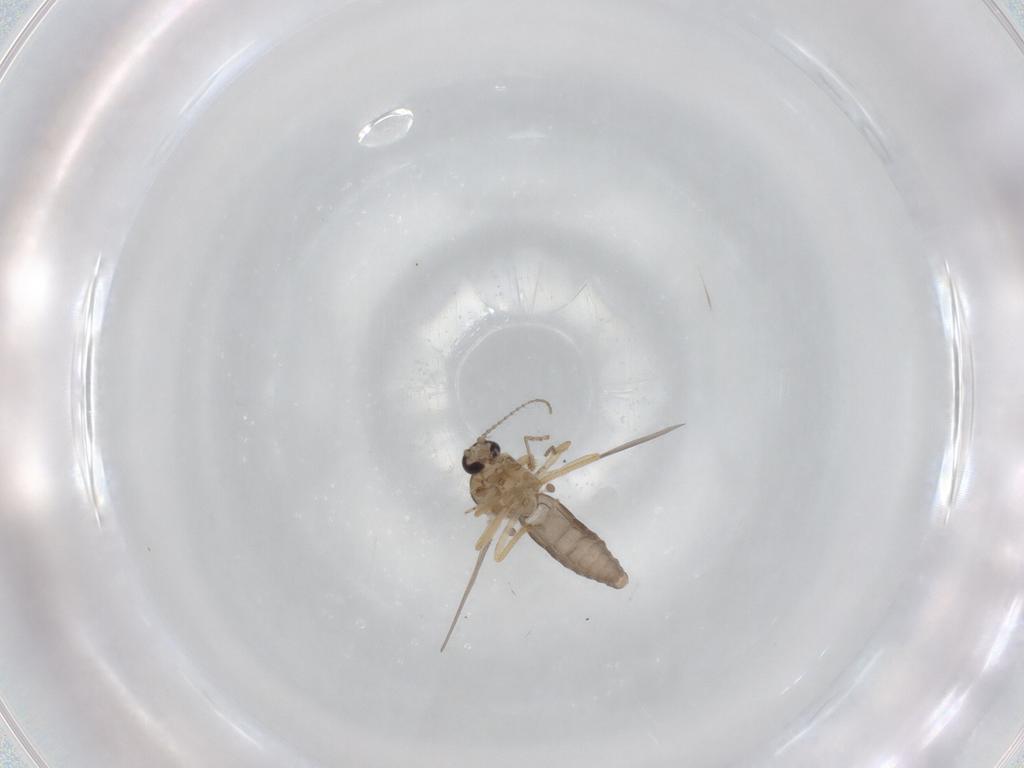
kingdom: Animalia
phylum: Arthropoda
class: Insecta
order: Diptera
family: Ceratopogonidae
